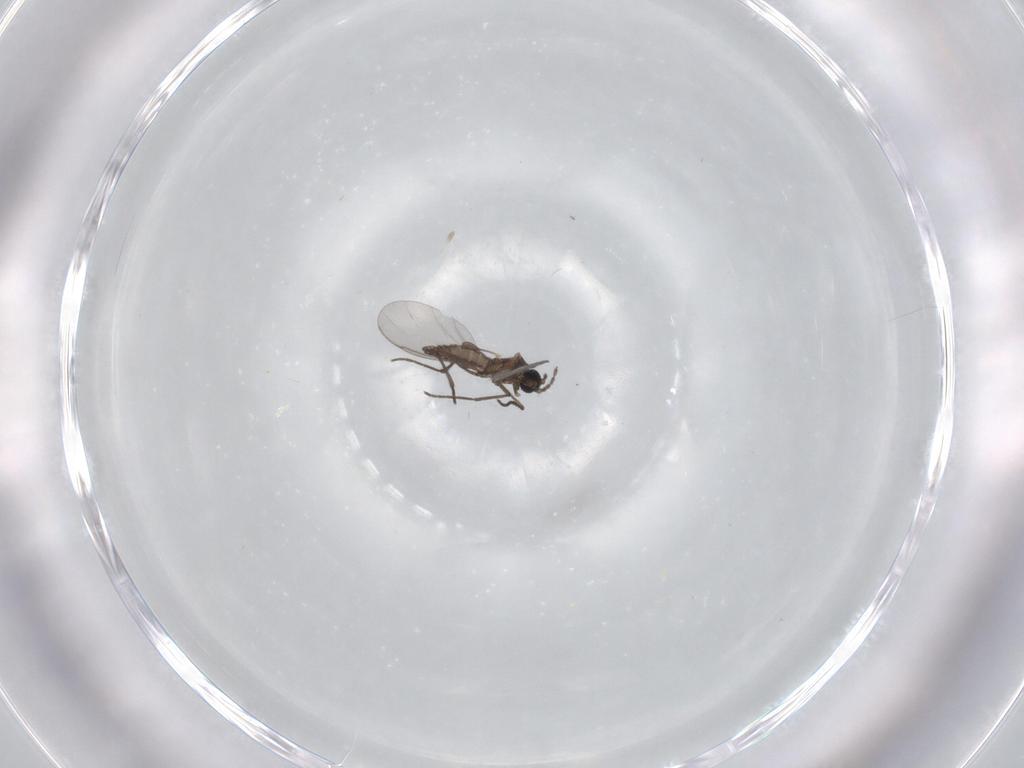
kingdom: Animalia
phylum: Arthropoda
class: Insecta
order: Diptera
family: Sciaridae
